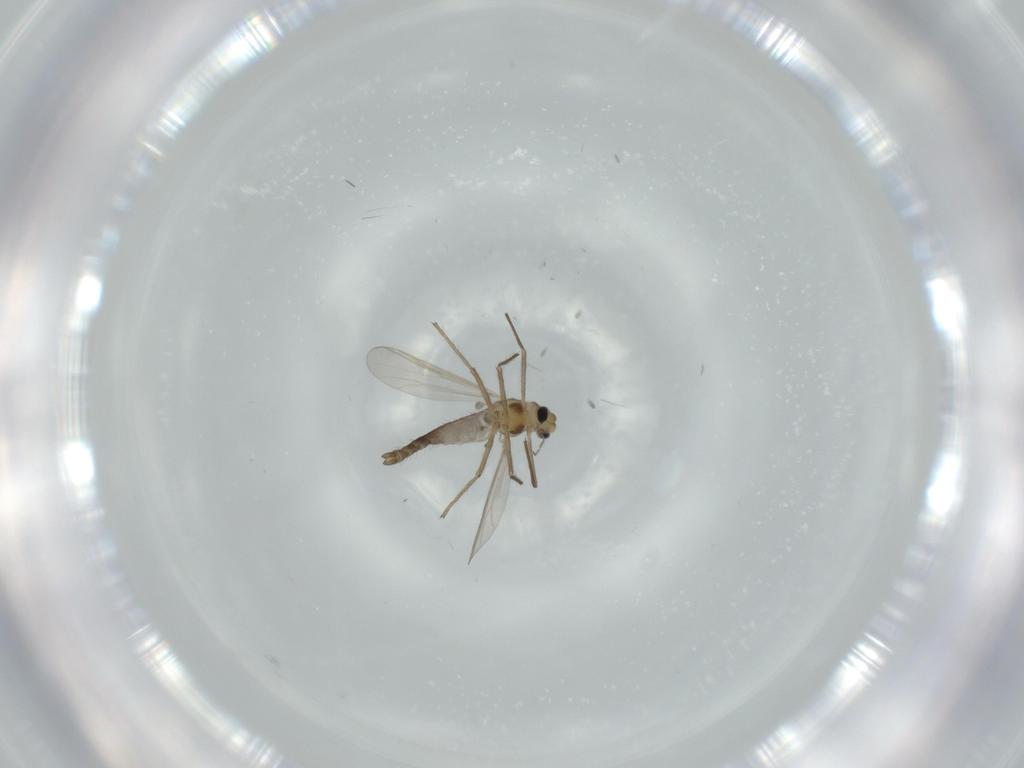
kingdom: Animalia
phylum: Arthropoda
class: Insecta
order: Diptera
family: Chironomidae
